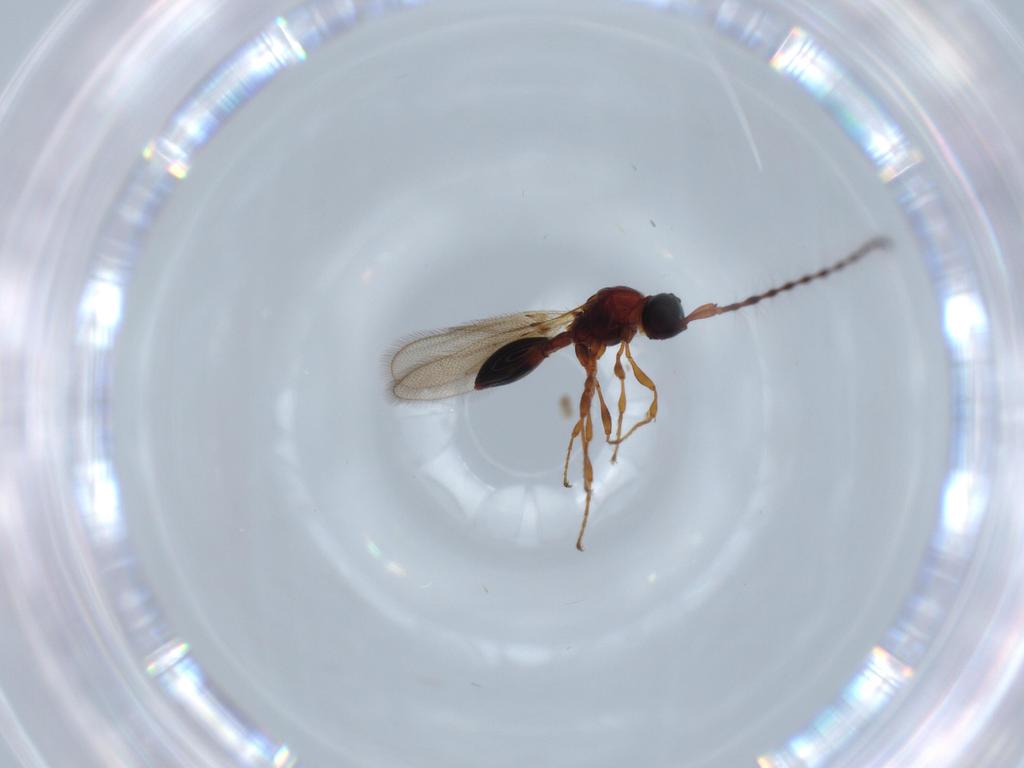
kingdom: Animalia
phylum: Arthropoda
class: Insecta
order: Hymenoptera
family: Diapriidae
